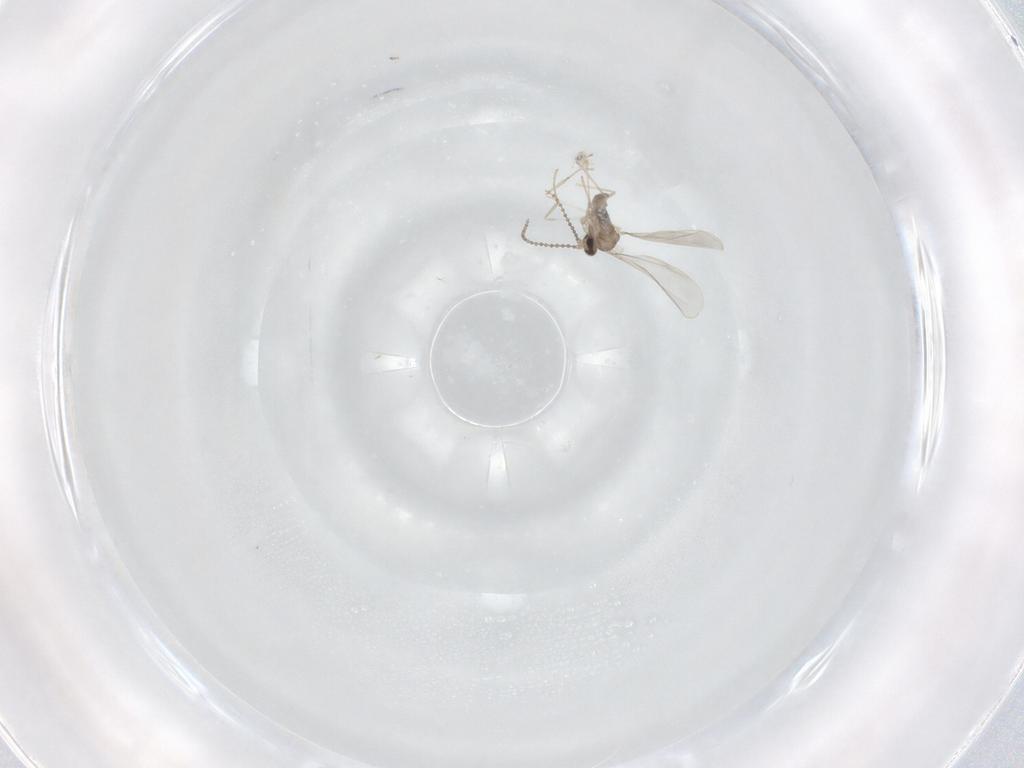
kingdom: Animalia
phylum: Arthropoda
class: Insecta
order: Diptera
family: Cecidomyiidae
